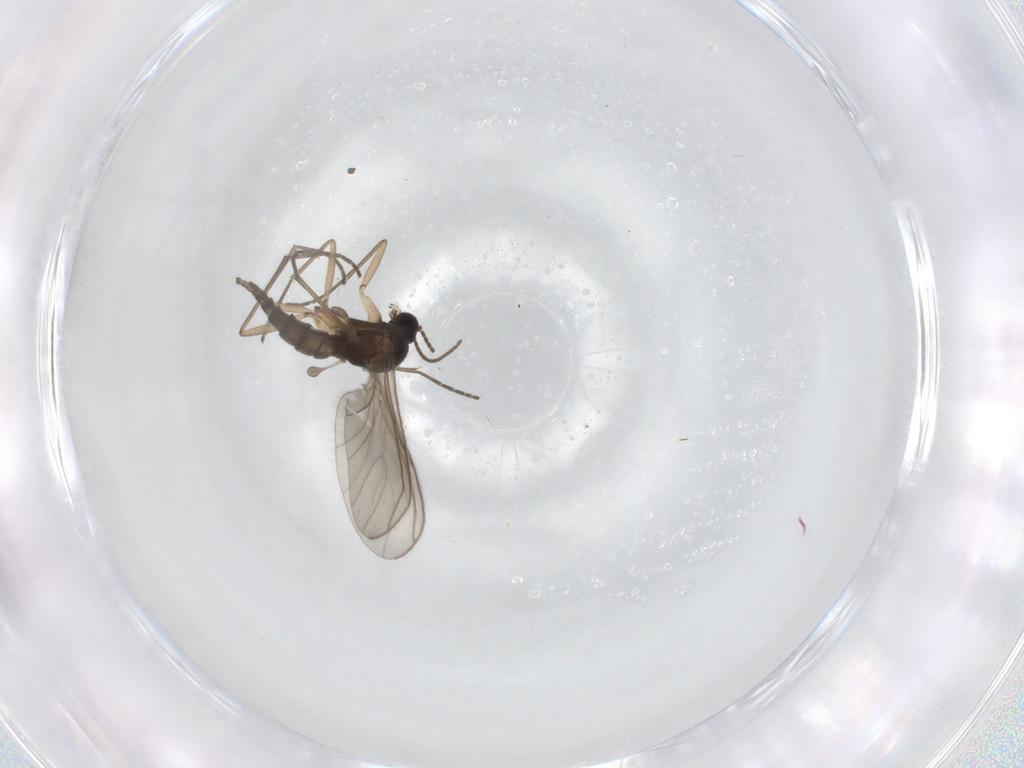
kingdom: Animalia
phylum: Arthropoda
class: Insecta
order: Diptera
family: Sciaridae
